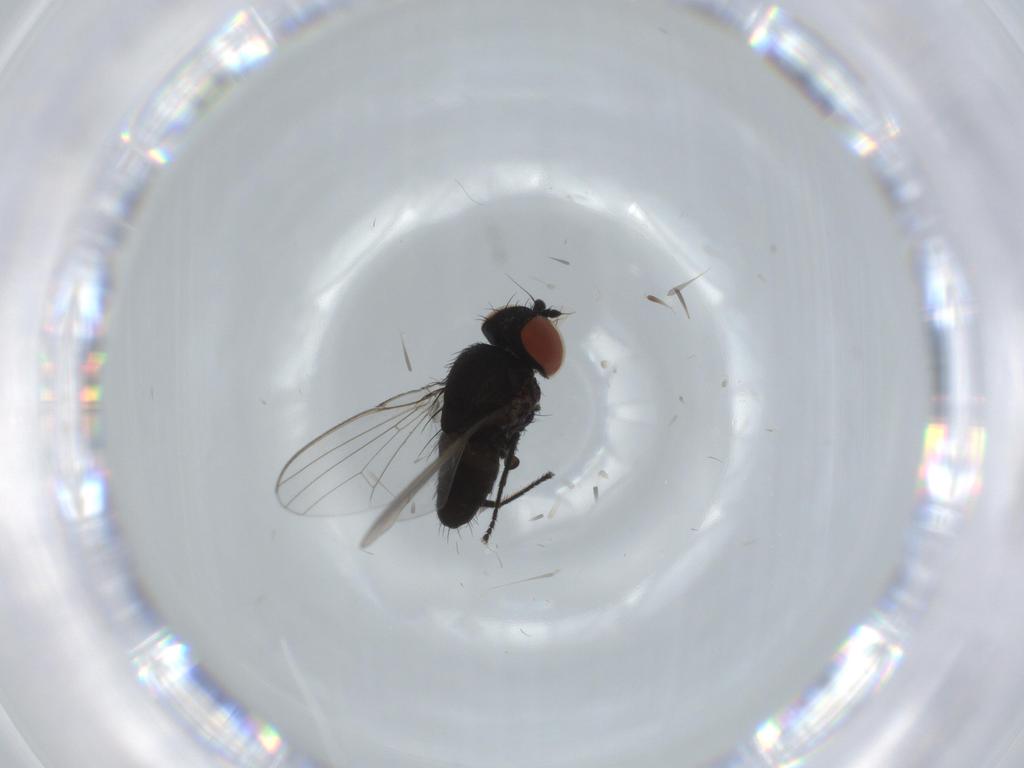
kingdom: Animalia
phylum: Arthropoda
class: Insecta
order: Diptera
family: Milichiidae
